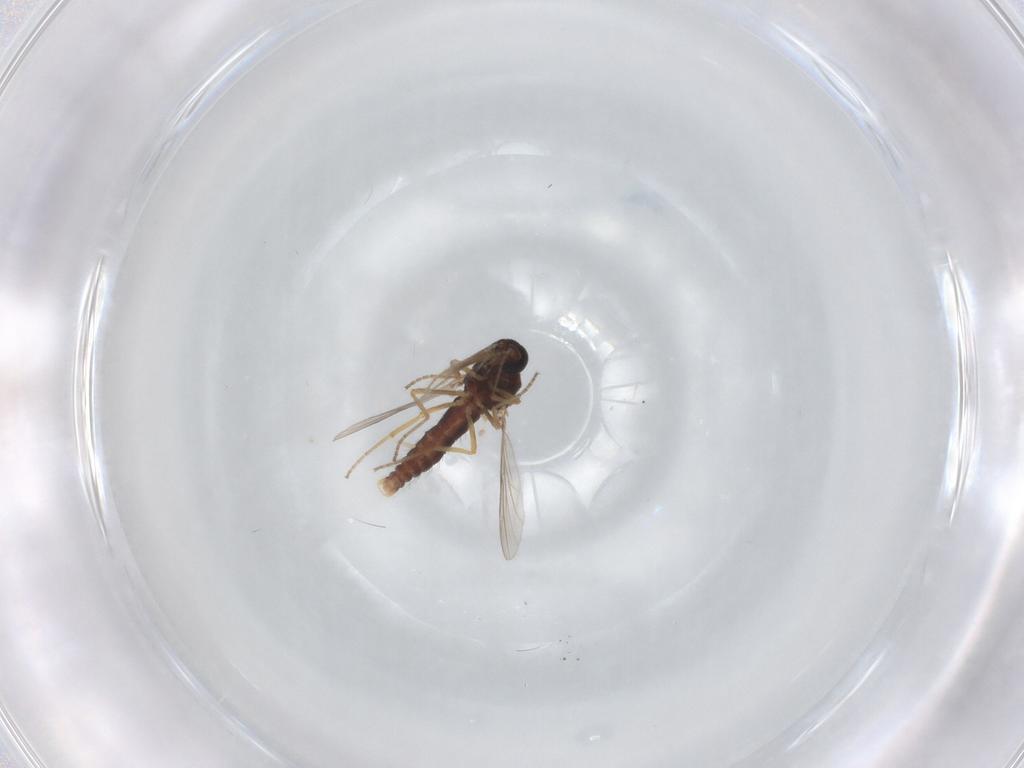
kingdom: Animalia
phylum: Arthropoda
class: Insecta
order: Diptera
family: Ceratopogonidae
